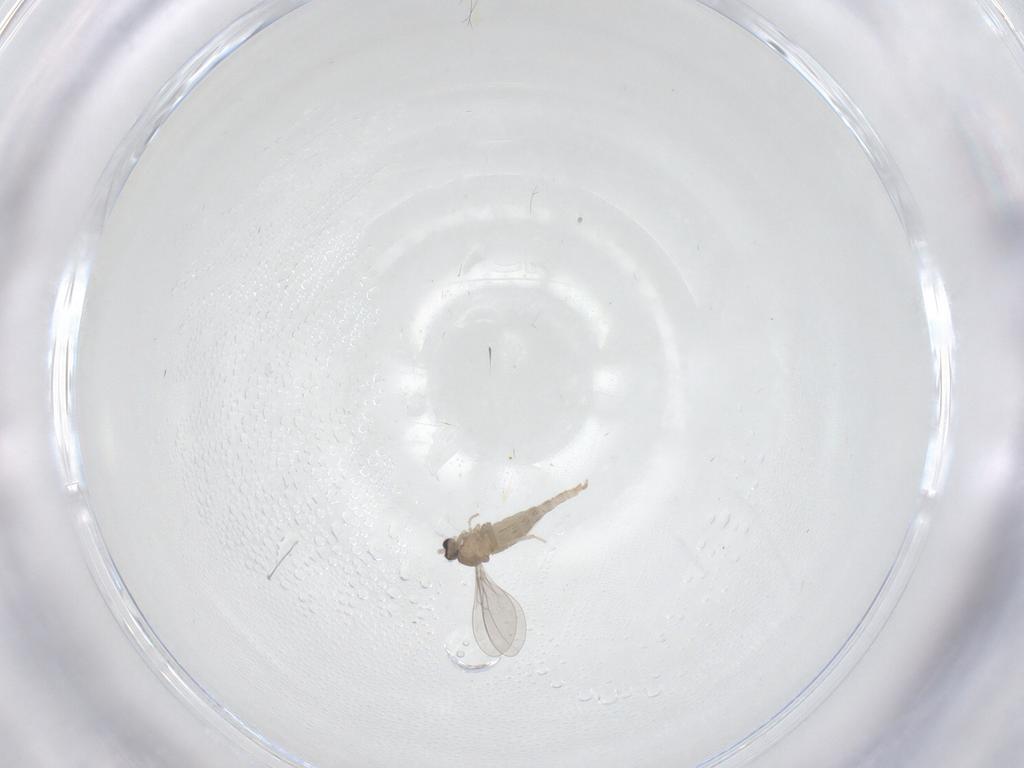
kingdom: Animalia
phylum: Arthropoda
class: Insecta
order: Diptera
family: Cecidomyiidae
